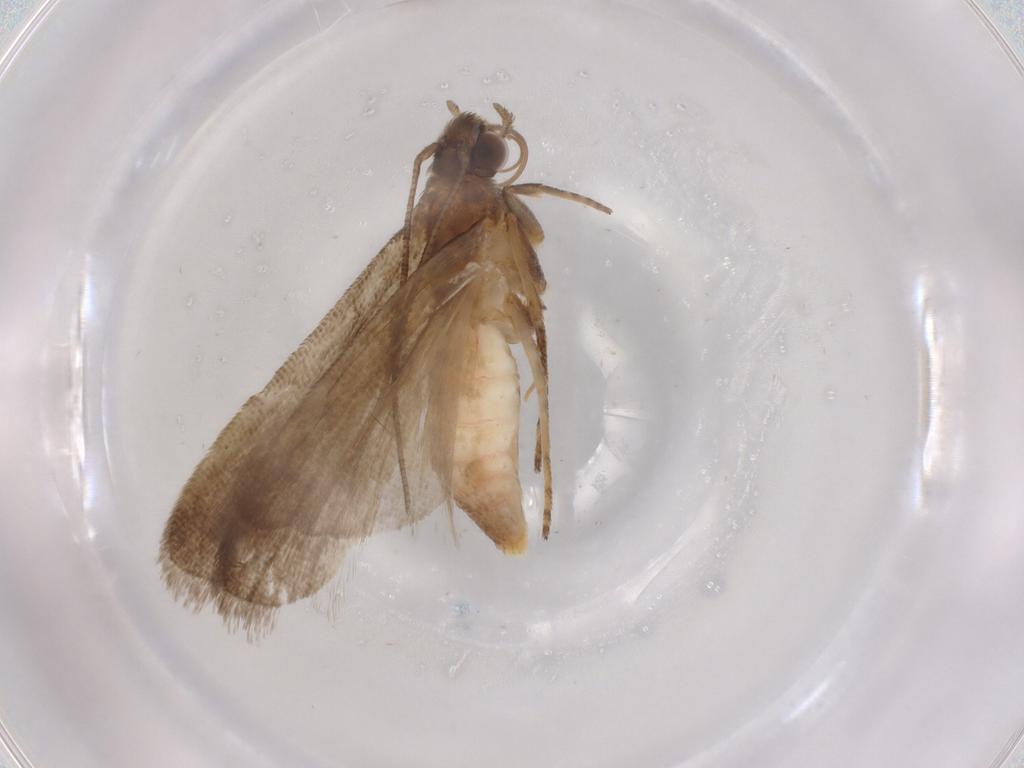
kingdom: Animalia
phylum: Arthropoda
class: Insecta
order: Lepidoptera
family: Noctuidae
